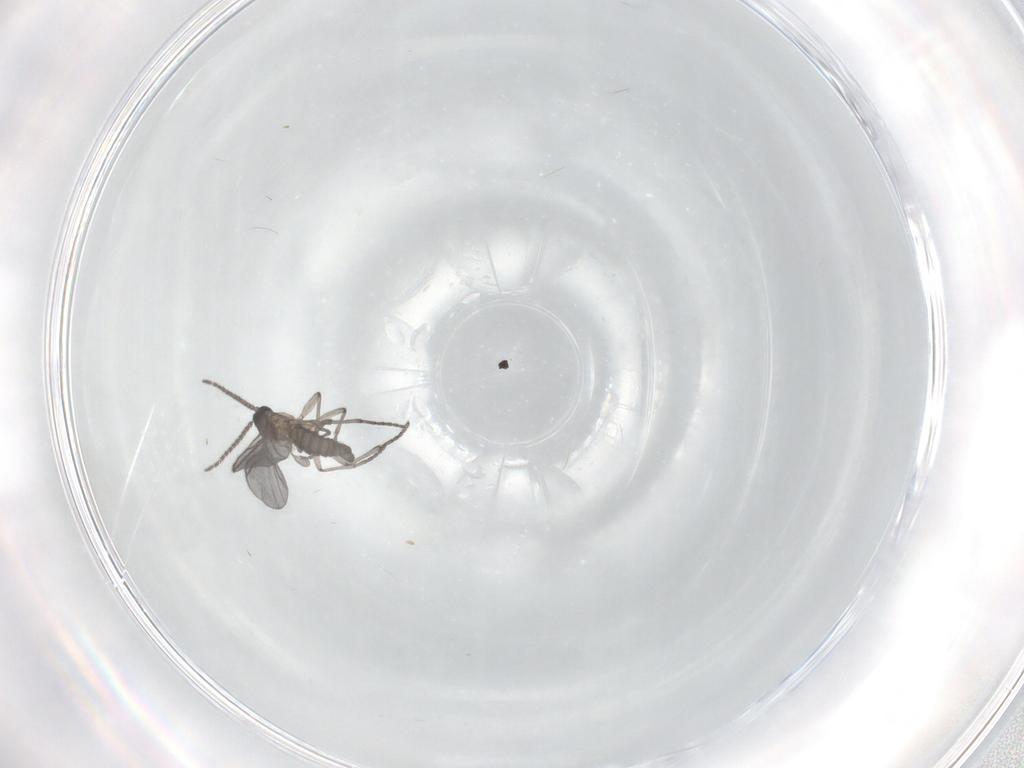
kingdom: Animalia
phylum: Arthropoda
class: Insecta
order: Diptera
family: Sciaridae
